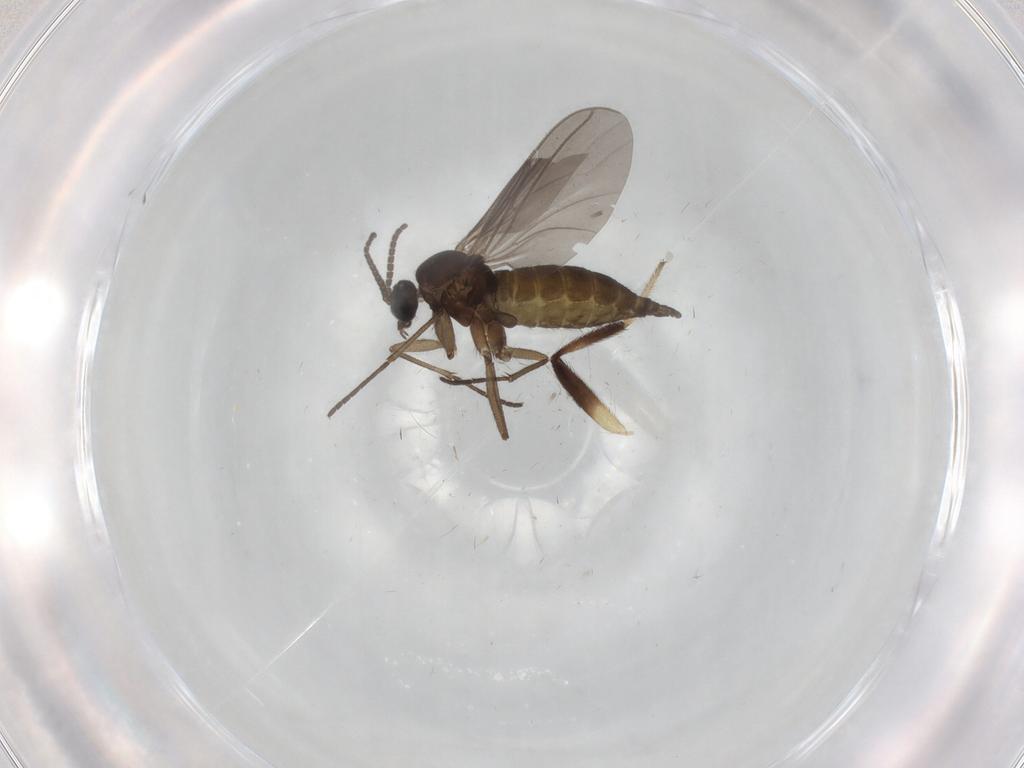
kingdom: Animalia
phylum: Arthropoda
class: Insecta
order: Diptera
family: Sciaridae
